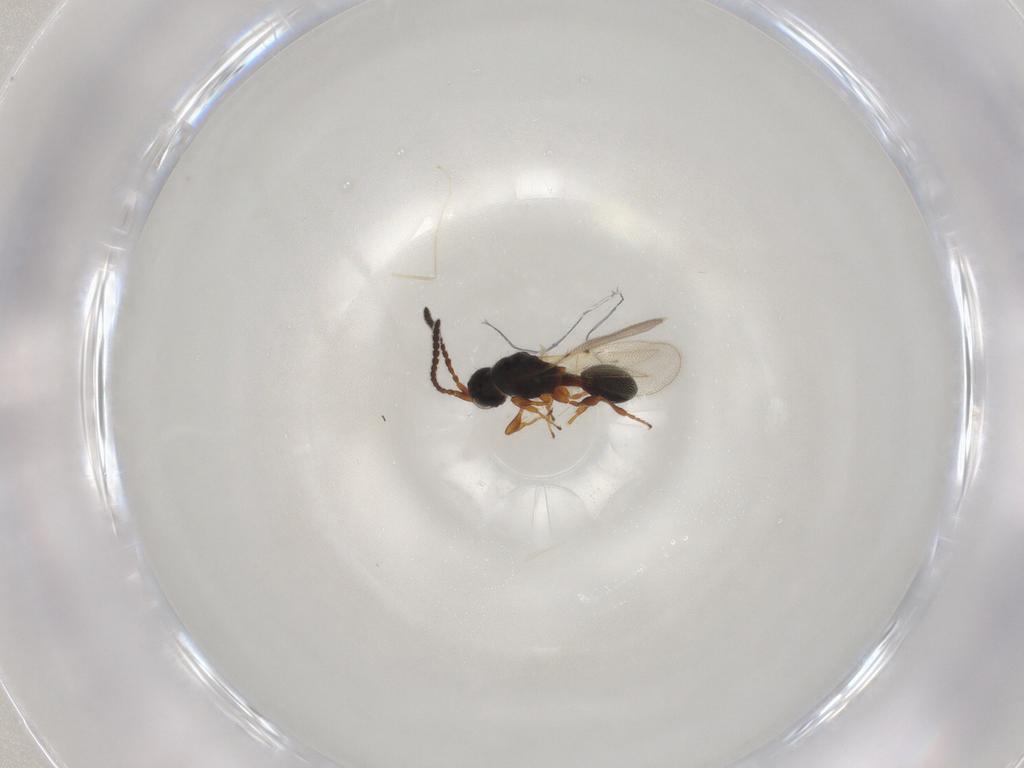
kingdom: Animalia
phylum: Arthropoda
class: Insecta
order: Hymenoptera
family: Diapriidae
